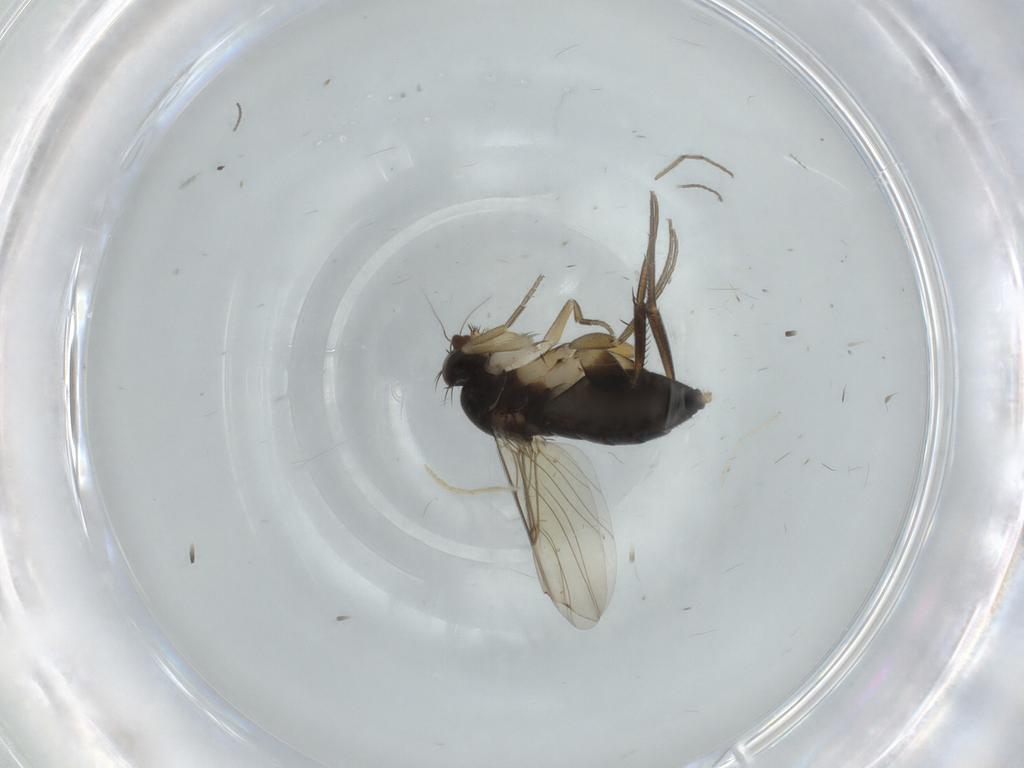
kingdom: Animalia
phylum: Arthropoda
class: Insecta
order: Diptera
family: Phoridae
